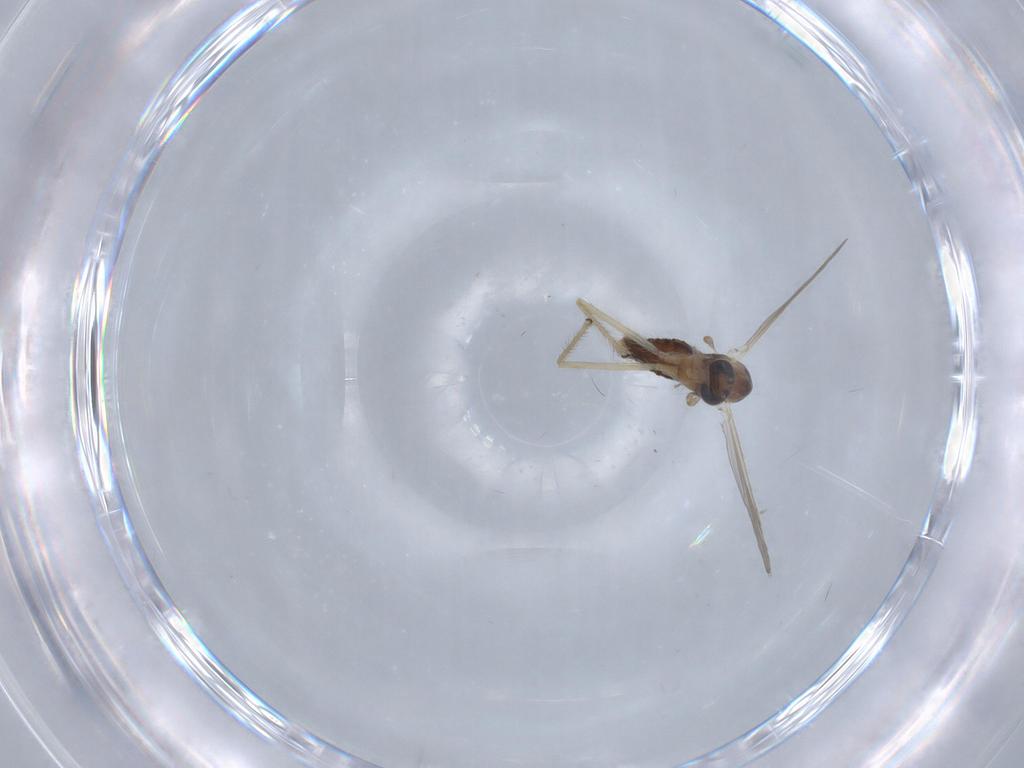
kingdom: Animalia
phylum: Arthropoda
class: Insecta
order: Diptera
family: Chironomidae
